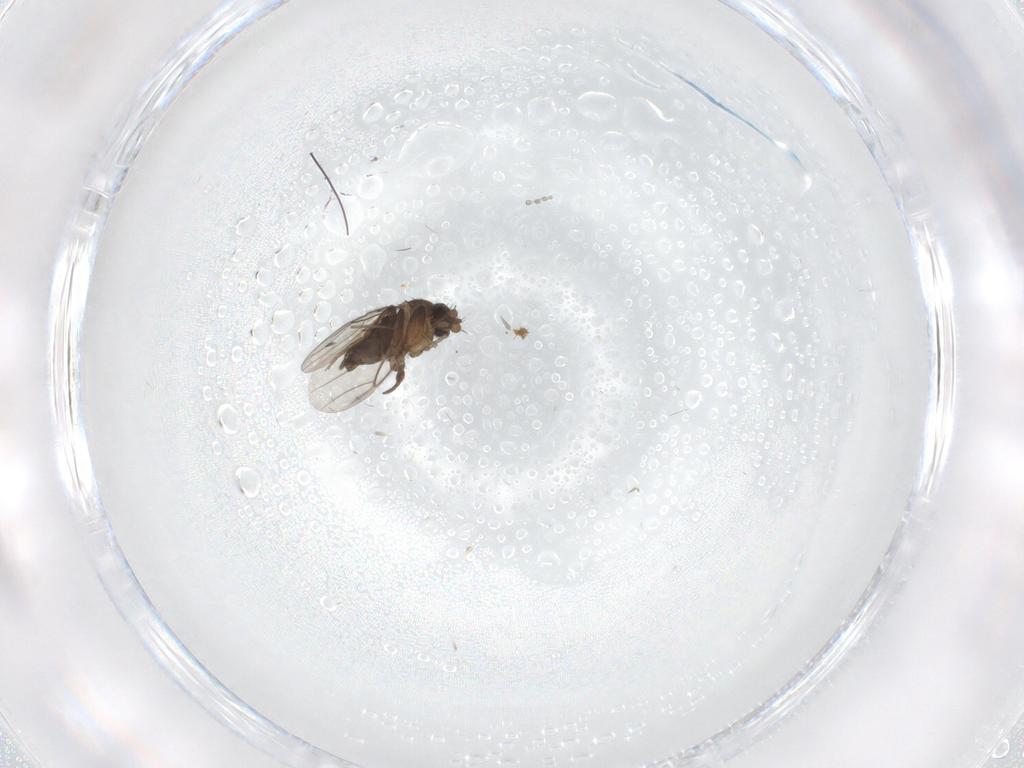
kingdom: Animalia
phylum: Arthropoda
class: Insecta
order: Diptera
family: Phoridae
